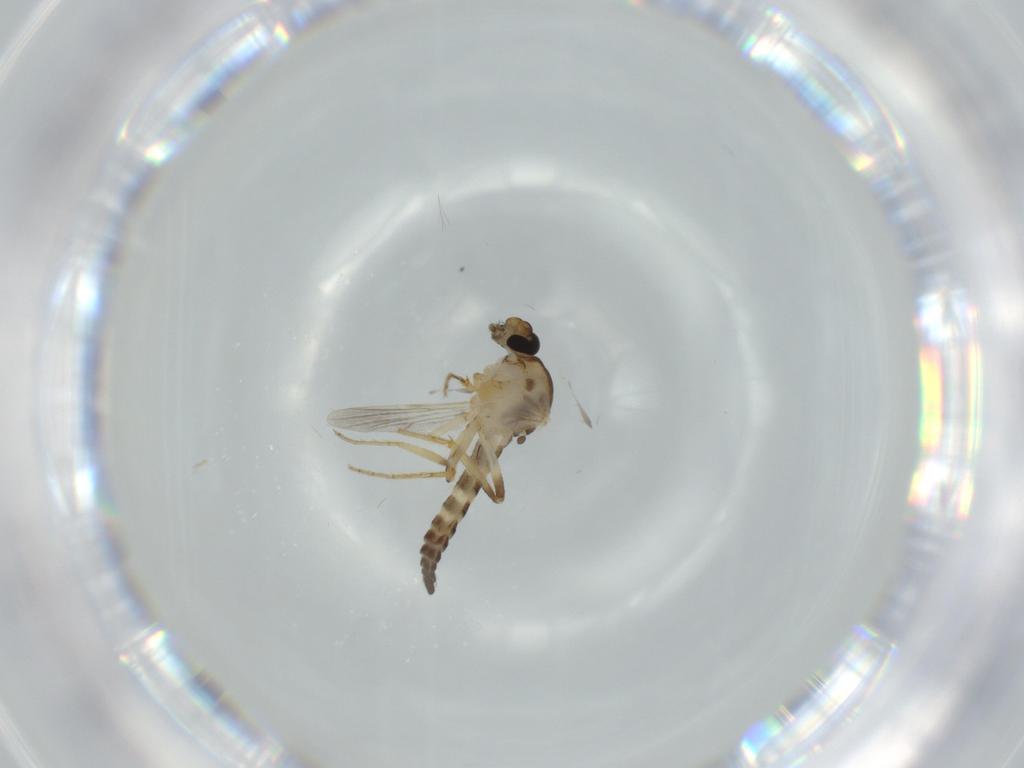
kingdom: Animalia
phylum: Arthropoda
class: Insecta
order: Diptera
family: Ceratopogonidae
